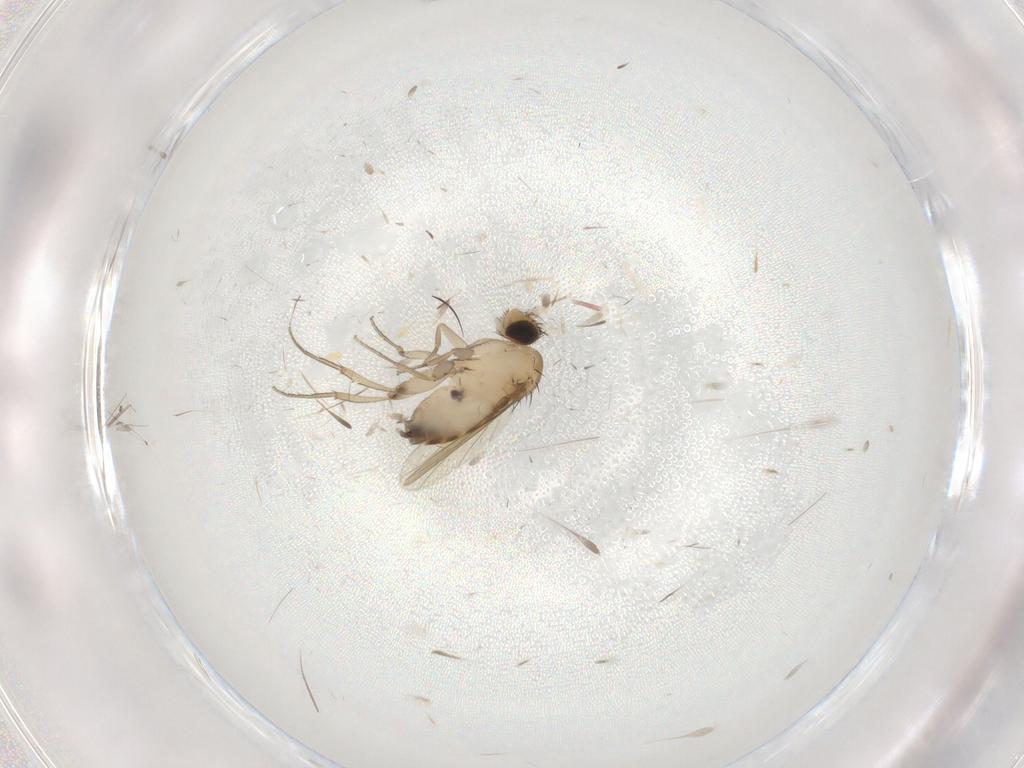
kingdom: Animalia
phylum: Arthropoda
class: Insecta
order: Diptera
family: Phoridae
